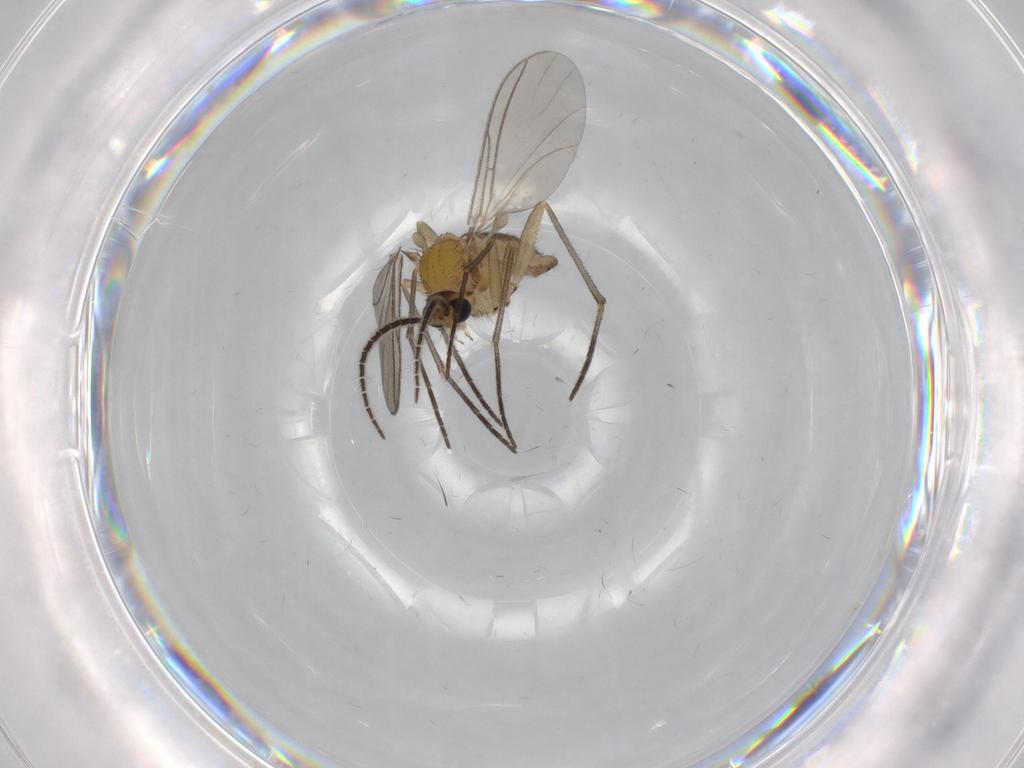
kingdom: Animalia
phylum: Arthropoda
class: Insecta
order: Diptera
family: Sciaridae
